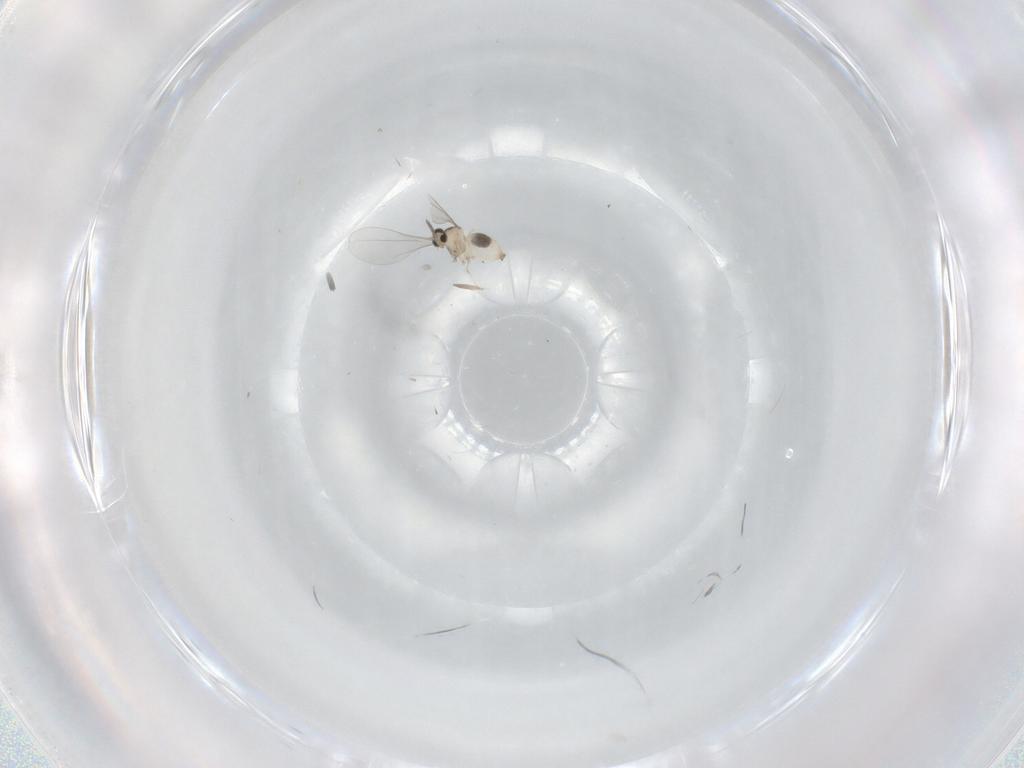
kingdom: Animalia
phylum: Arthropoda
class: Insecta
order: Diptera
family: Cecidomyiidae
